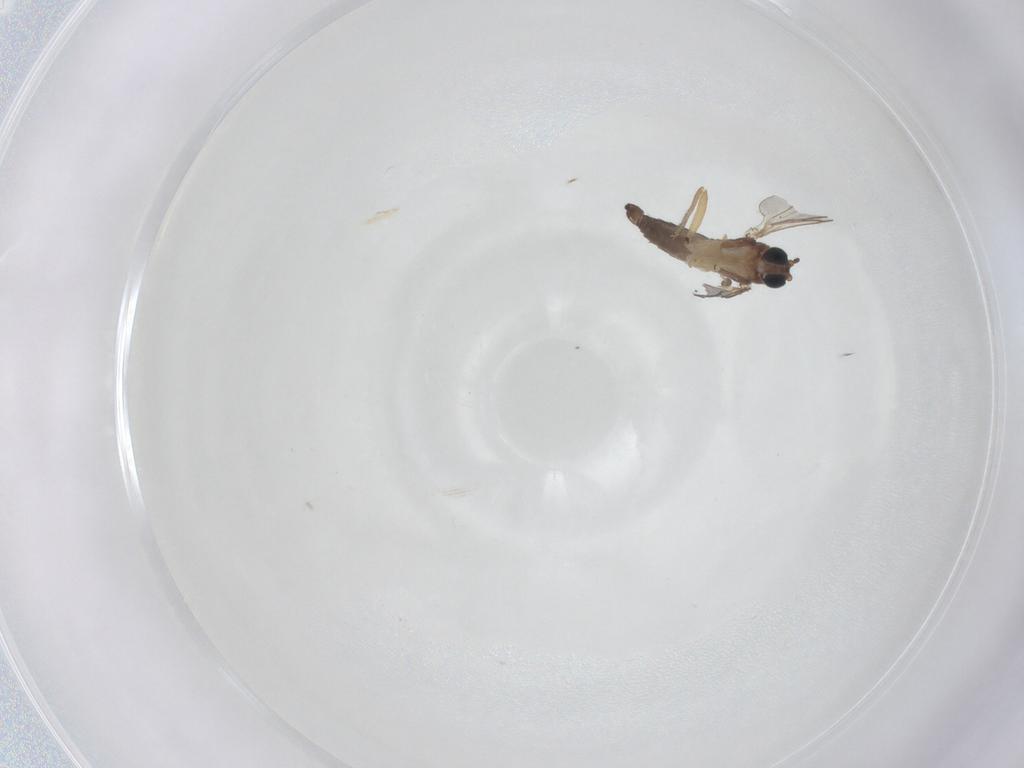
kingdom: Animalia
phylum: Arthropoda
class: Insecta
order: Diptera
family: Sciaridae
